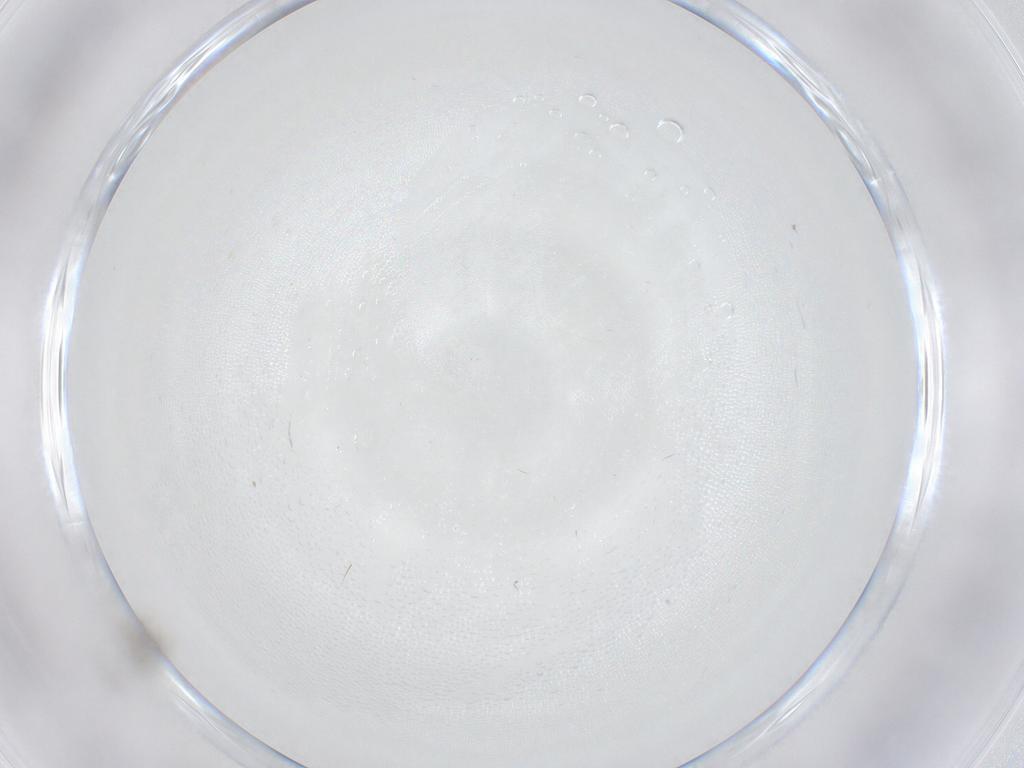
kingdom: Animalia
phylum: Arthropoda
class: Insecta
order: Diptera
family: Cecidomyiidae
